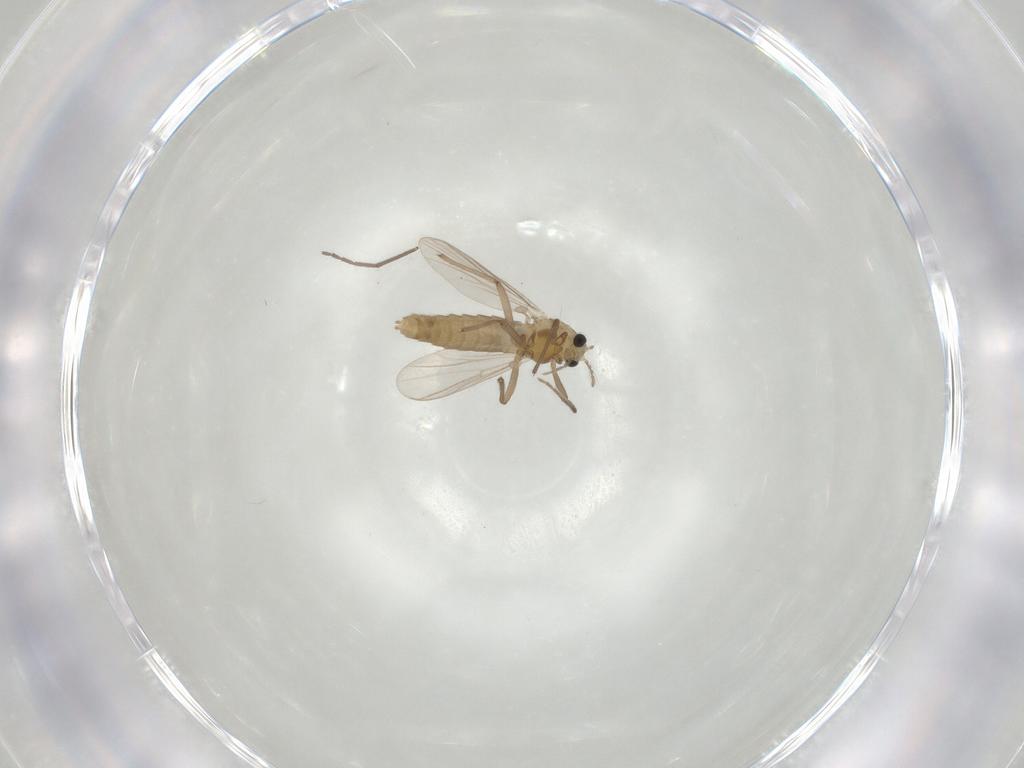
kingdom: Animalia
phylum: Arthropoda
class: Insecta
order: Diptera
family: Chironomidae
